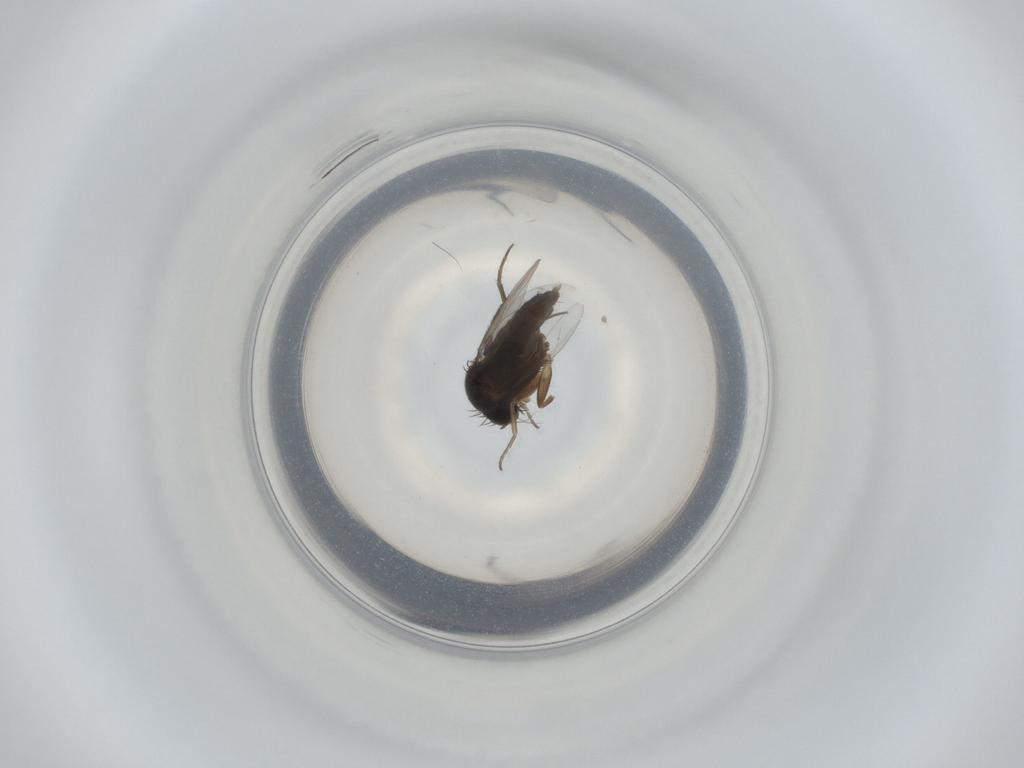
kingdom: Animalia
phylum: Arthropoda
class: Insecta
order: Diptera
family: Phoridae
